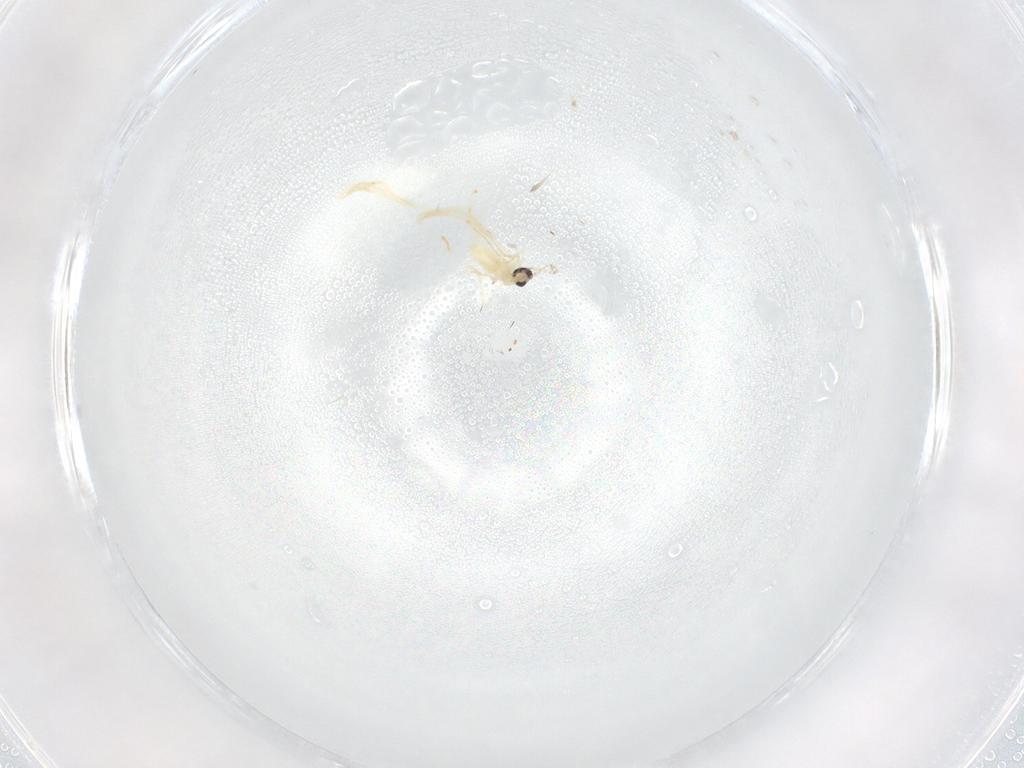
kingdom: Animalia
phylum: Arthropoda
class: Insecta
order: Diptera
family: Cecidomyiidae
